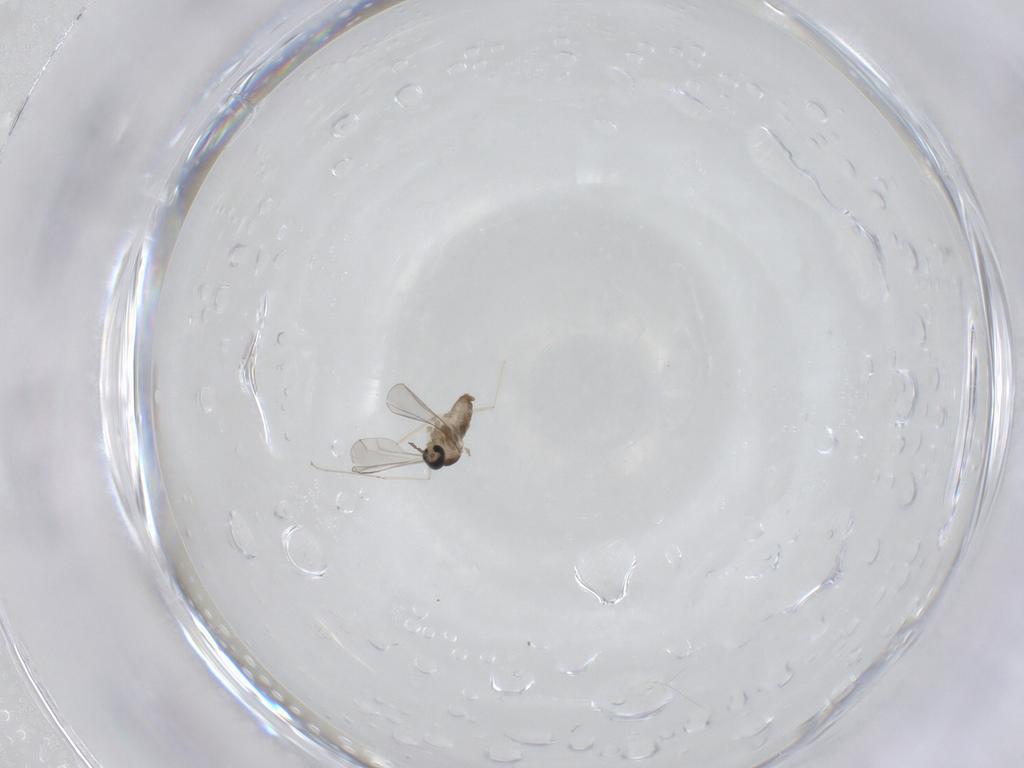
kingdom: Animalia
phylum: Arthropoda
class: Insecta
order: Diptera
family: Cecidomyiidae
